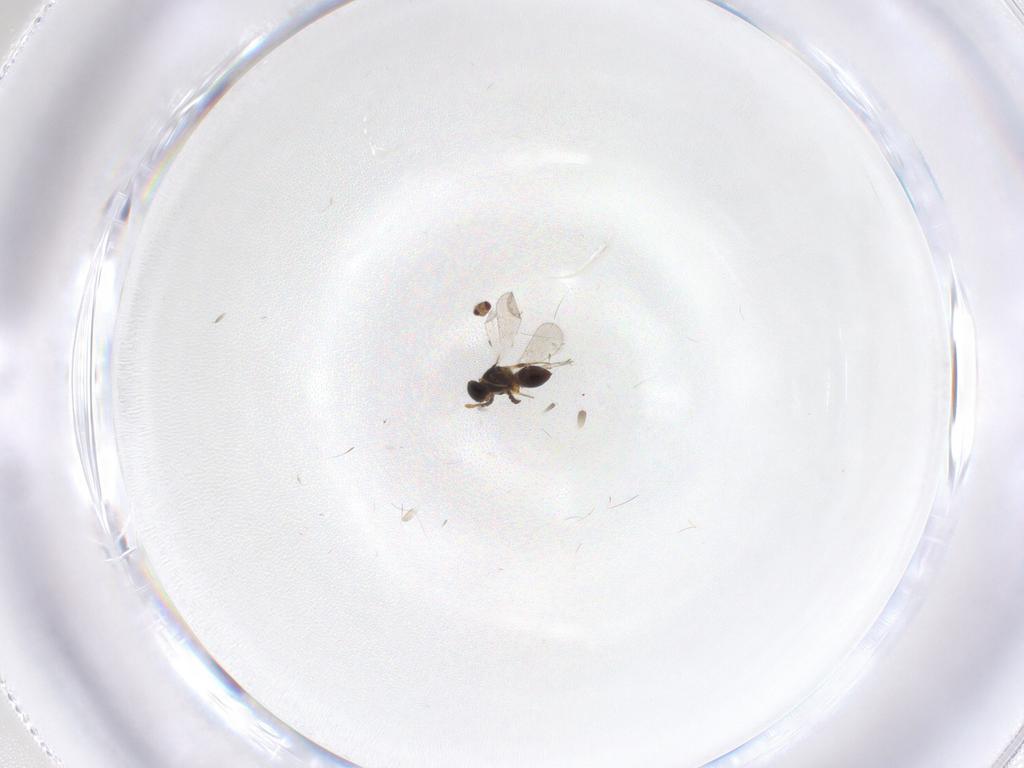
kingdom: Animalia
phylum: Arthropoda
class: Insecta
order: Hymenoptera
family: Platygastridae
